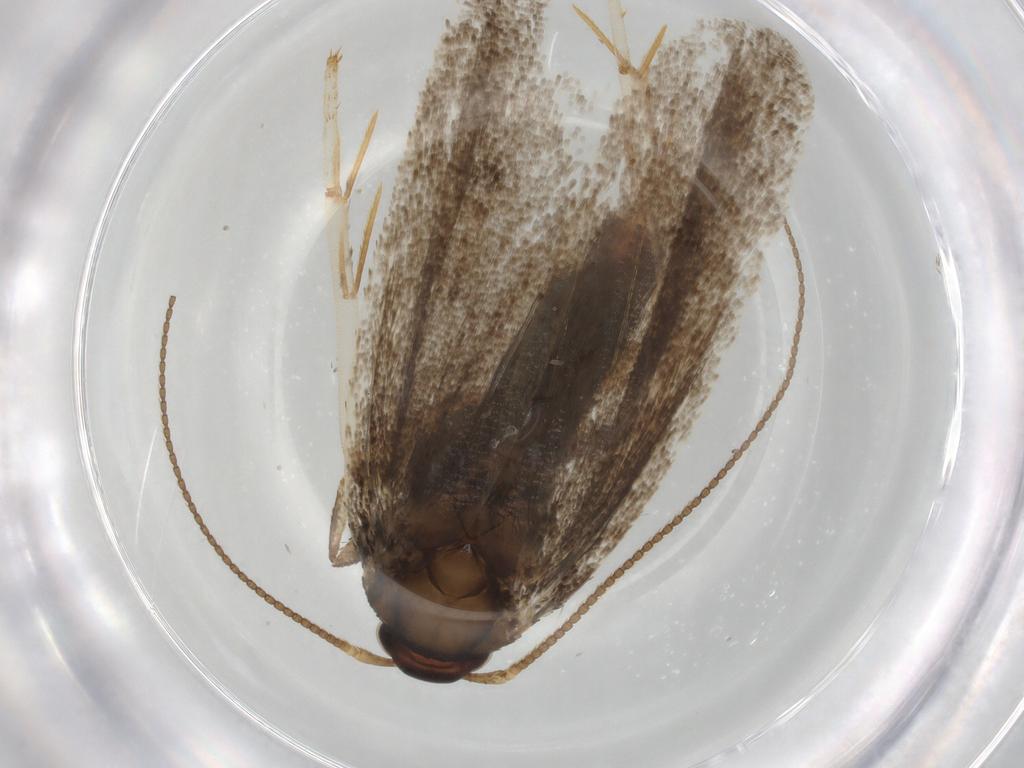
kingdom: Animalia
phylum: Arthropoda
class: Insecta
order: Lepidoptera
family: Lecithoceridae
